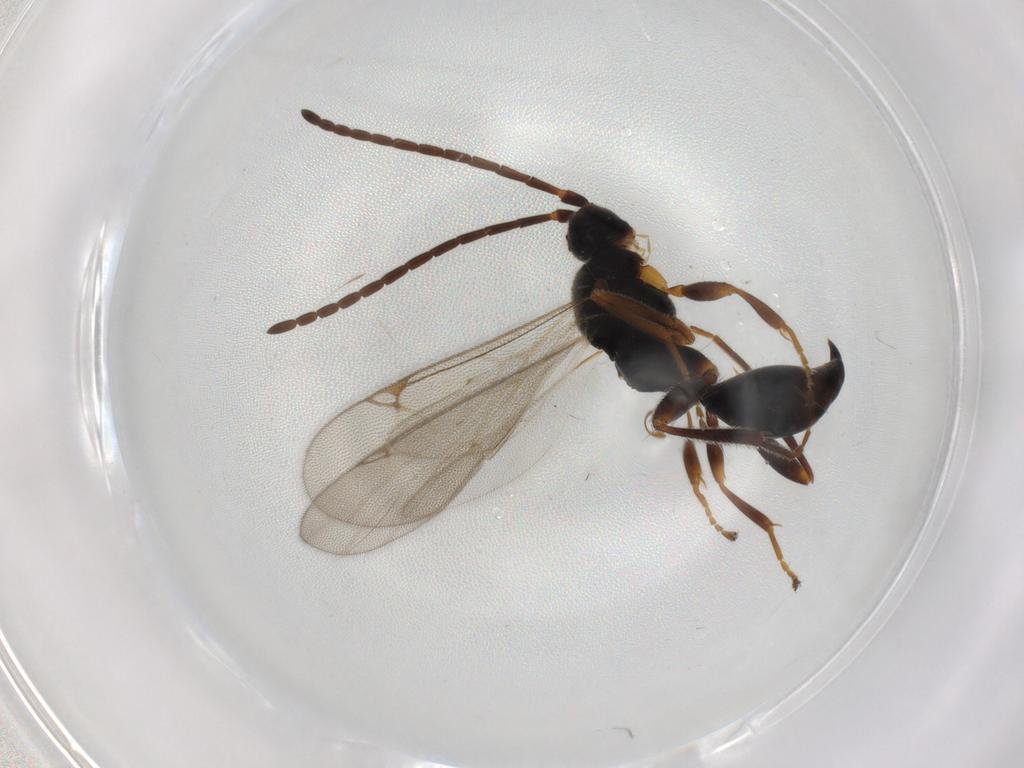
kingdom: Animalia
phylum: Arthropoda
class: Insecta
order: Hymenoptera
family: Proctotrupidae
